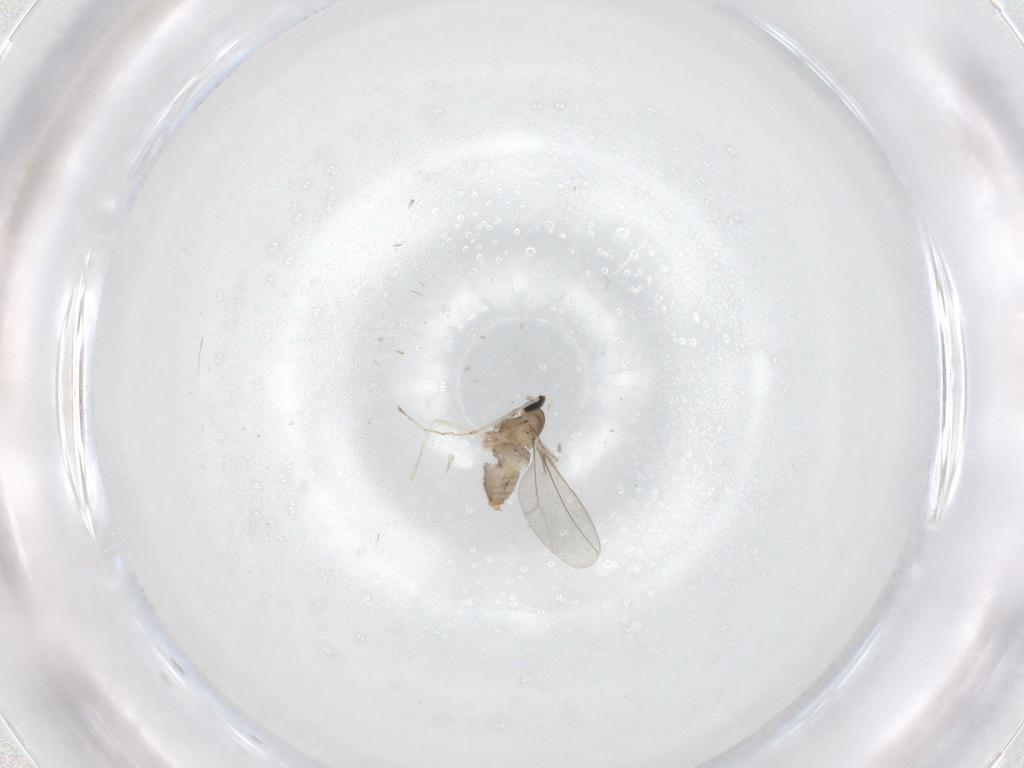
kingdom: Animalia
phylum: Arthropoda
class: Insecta
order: Diptera
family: Cecidomyiidae
